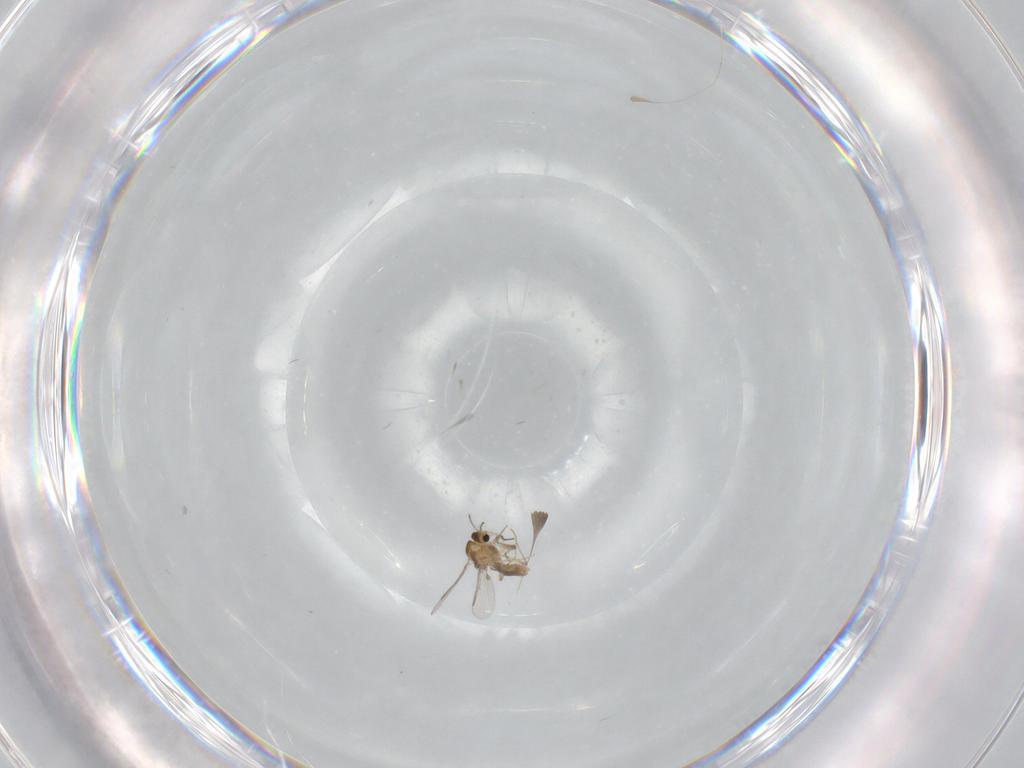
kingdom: Animalia
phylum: Arthropoda
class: Insecta
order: Diptera
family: Chironomidae
